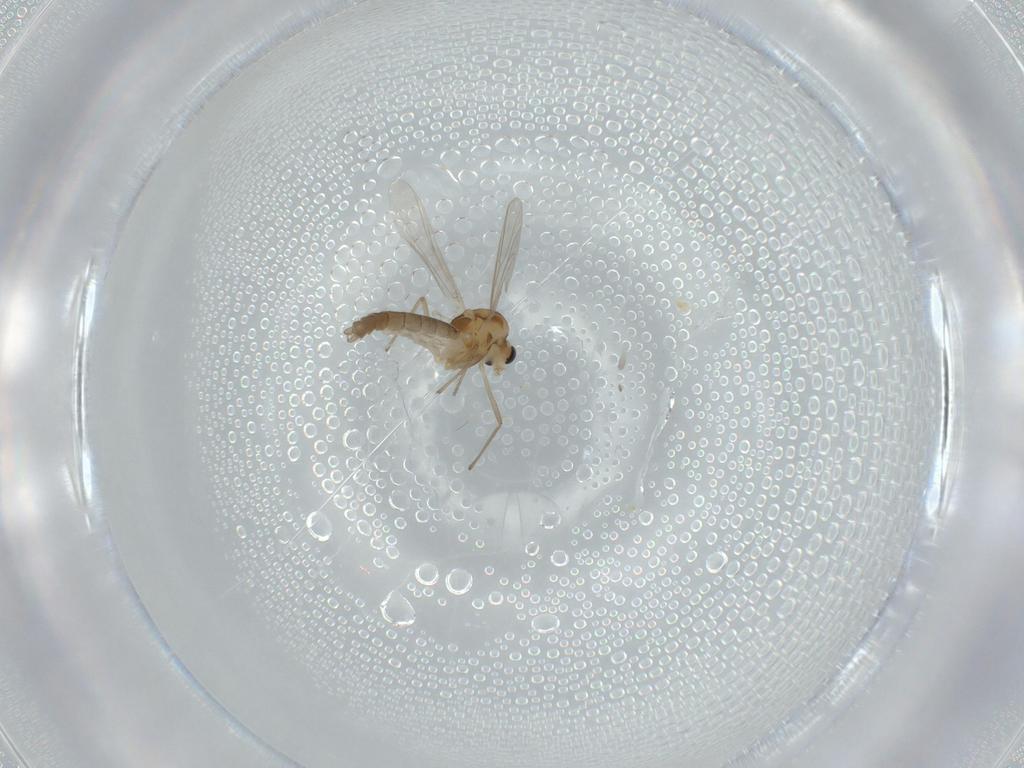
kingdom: Animalia
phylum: Arthropoda
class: Insecta
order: Diptera
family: Chironomidae
